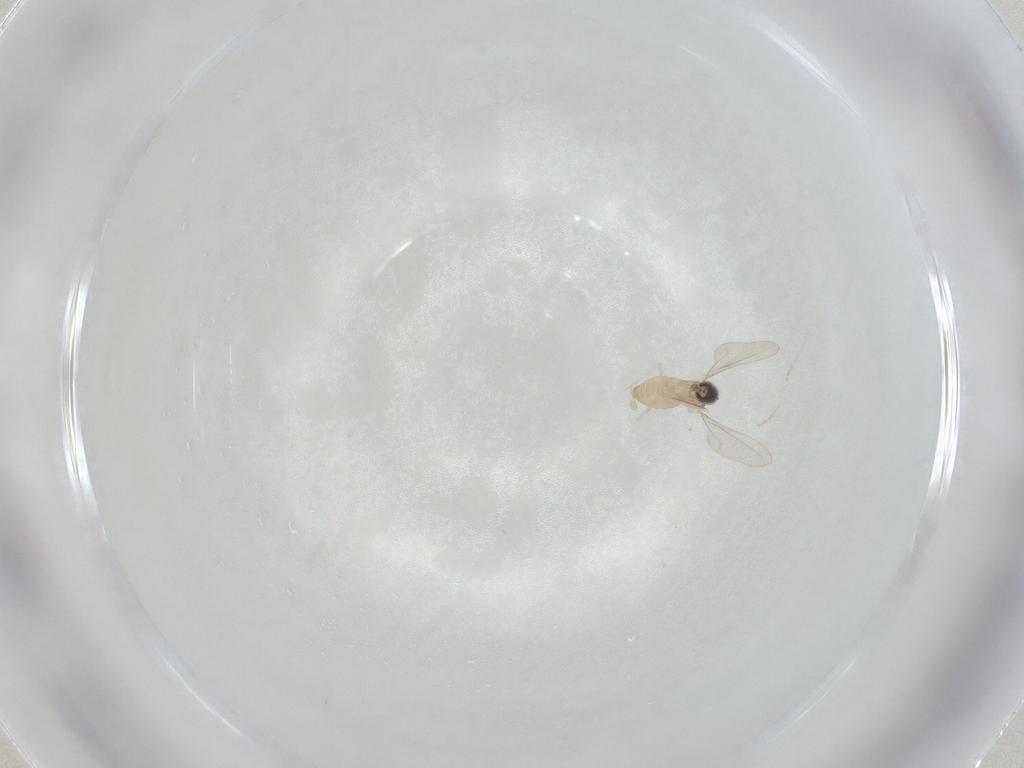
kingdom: Animalia
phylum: Arthropoda
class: Insecta
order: Diptera
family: Cecidomyiidae
